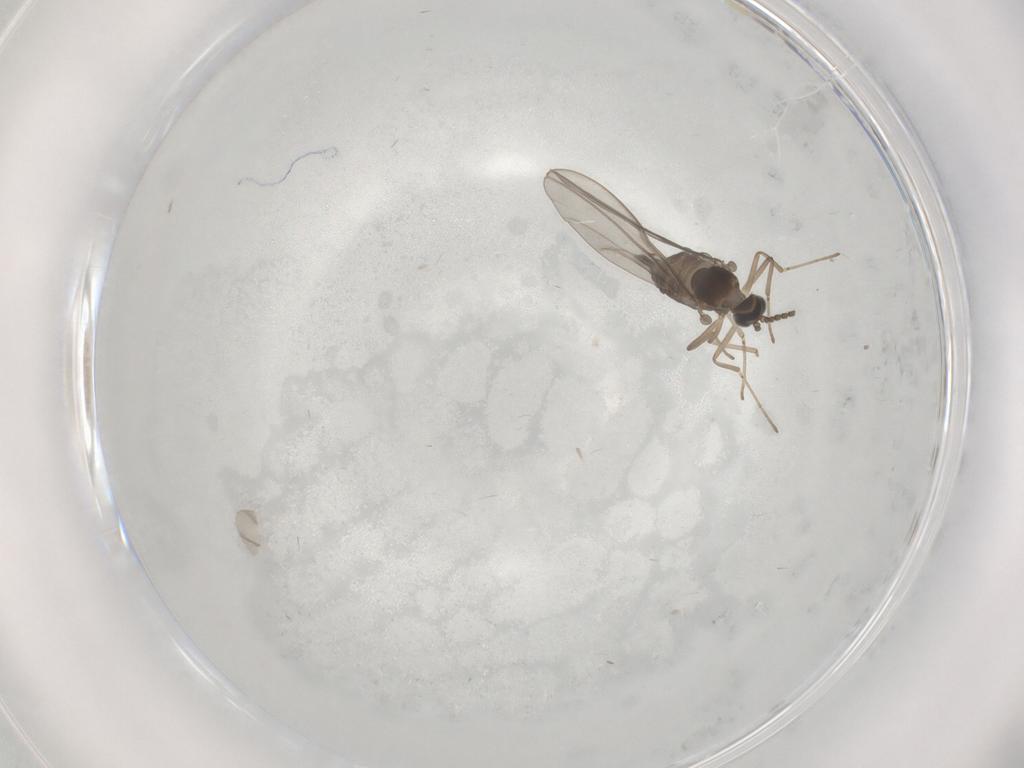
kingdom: Animalia
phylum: Arthropoda
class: Insecta
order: Diptera
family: Cecidomyiidae
